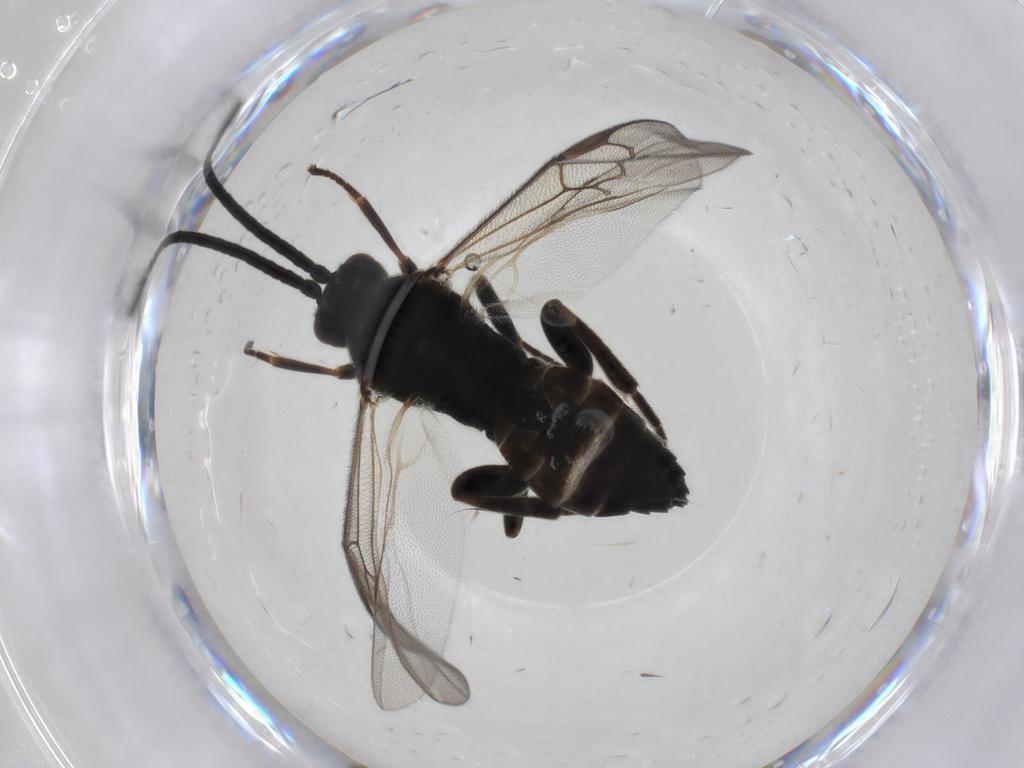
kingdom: Animalia
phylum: Arthropoda
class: Insecta
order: Hymenoptera
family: Braconidae
